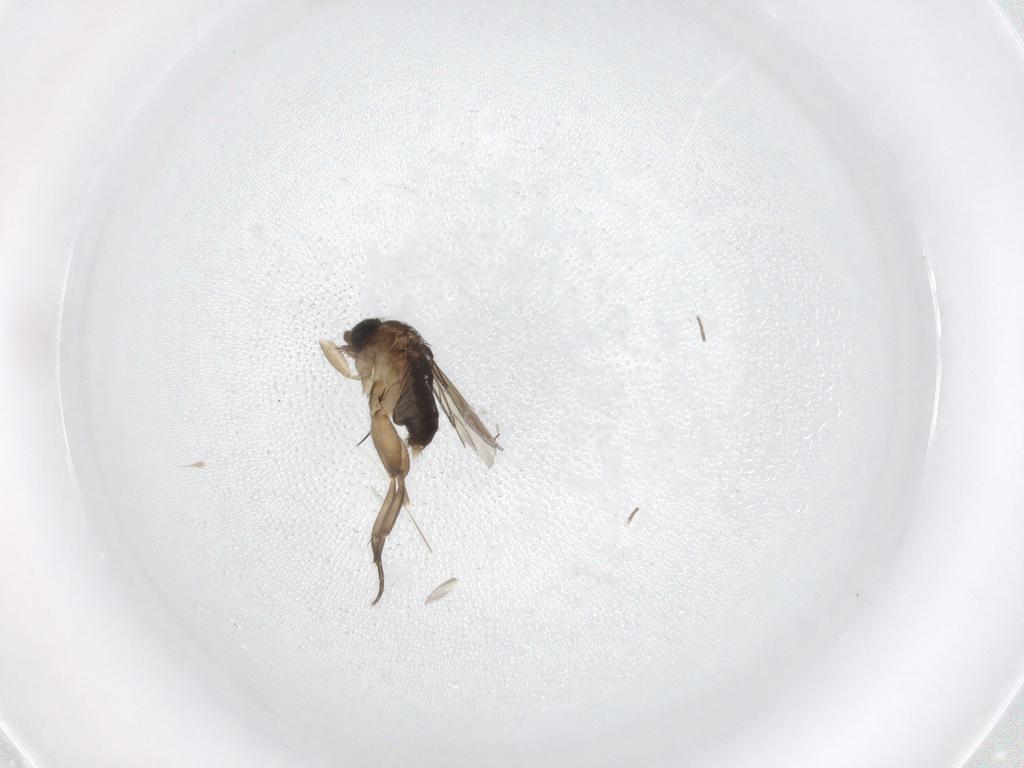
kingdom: Animalia
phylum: Arthropoda
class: Insecta
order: Diptera
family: Phoridae
